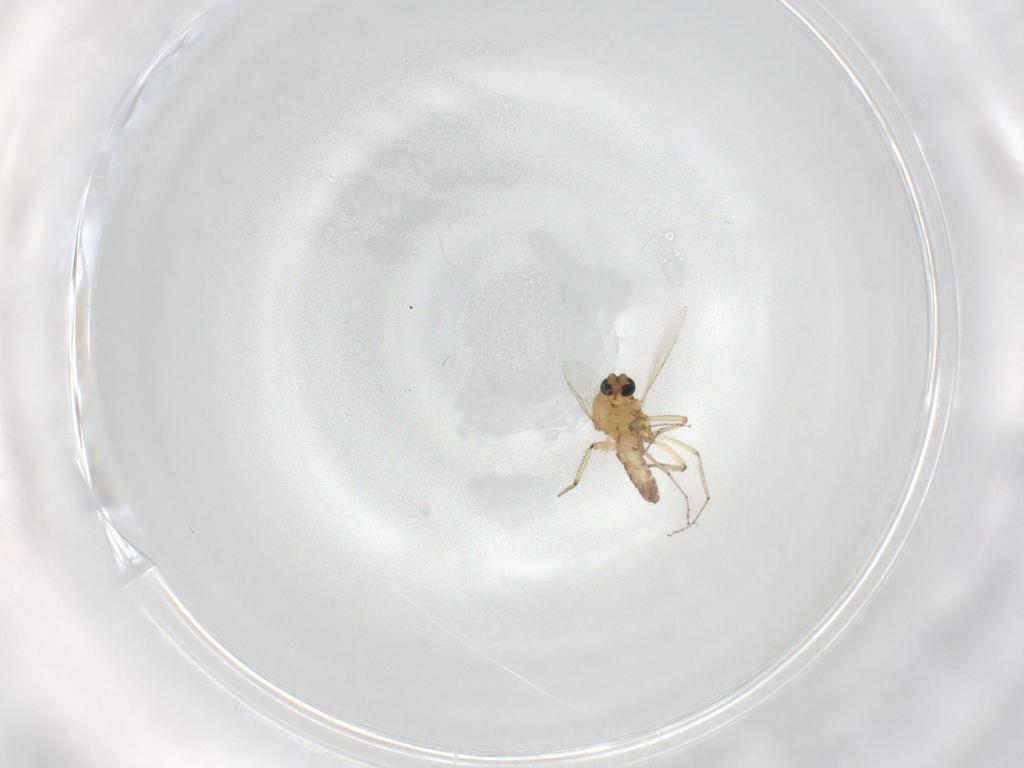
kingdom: Animalia
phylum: Arthropoda
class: Insecta
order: Diptera
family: Ceratopogonidae
